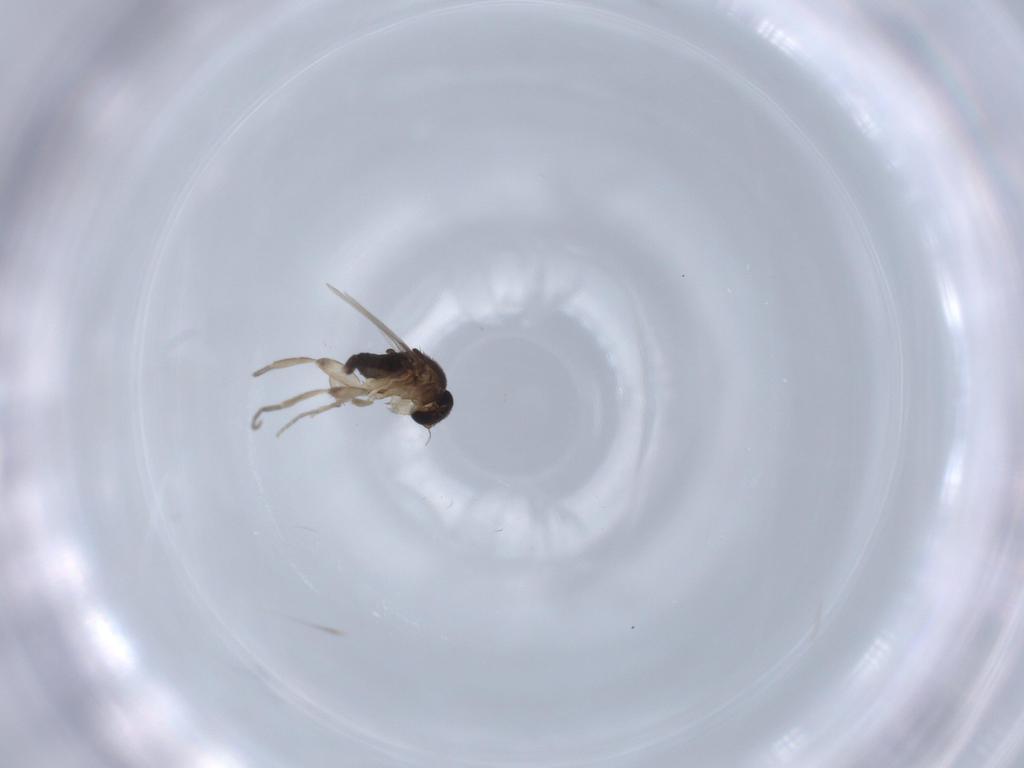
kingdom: Animalia
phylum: Arthropoda
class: Insecta
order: Diptera
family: Phoridae
